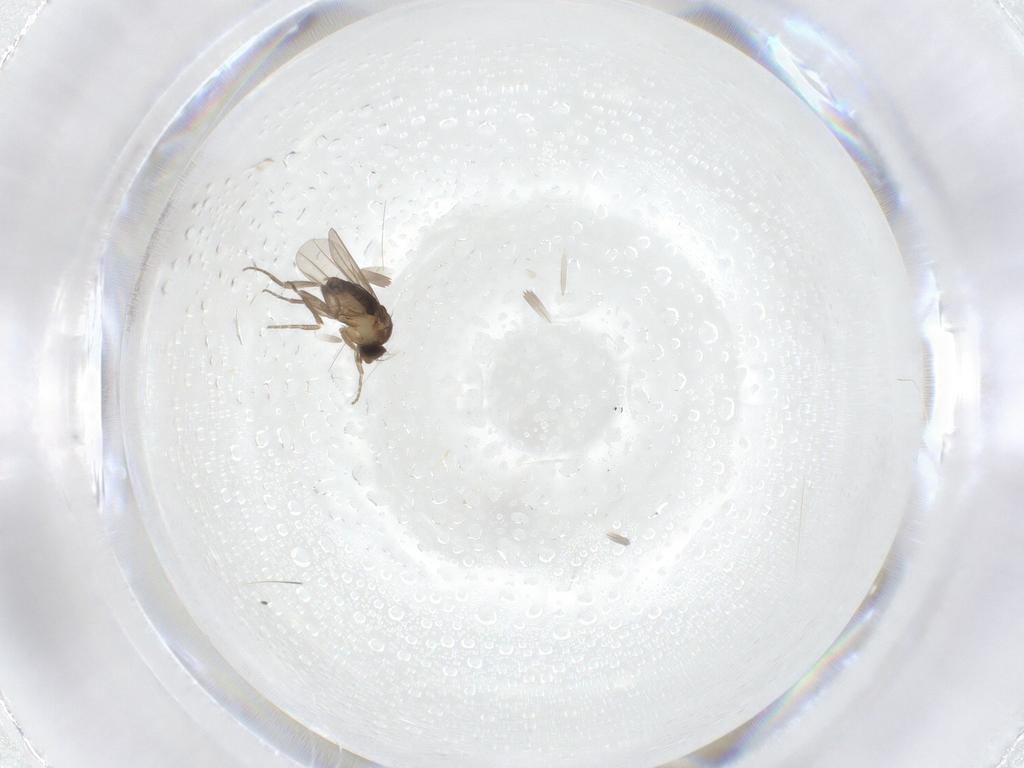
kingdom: Animalia
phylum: Arthropoda
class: Insecta
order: Diptera
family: Phoridae
